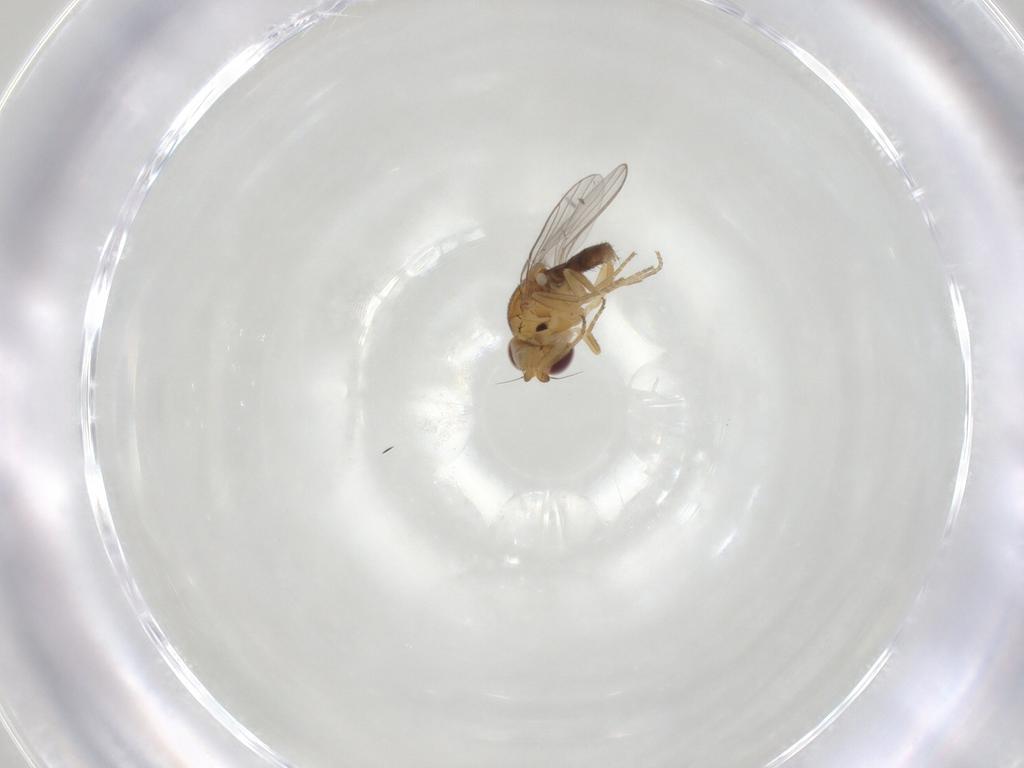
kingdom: Animalia
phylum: Arthropoda
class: Insecta
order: Diptera
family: Chloropidae
